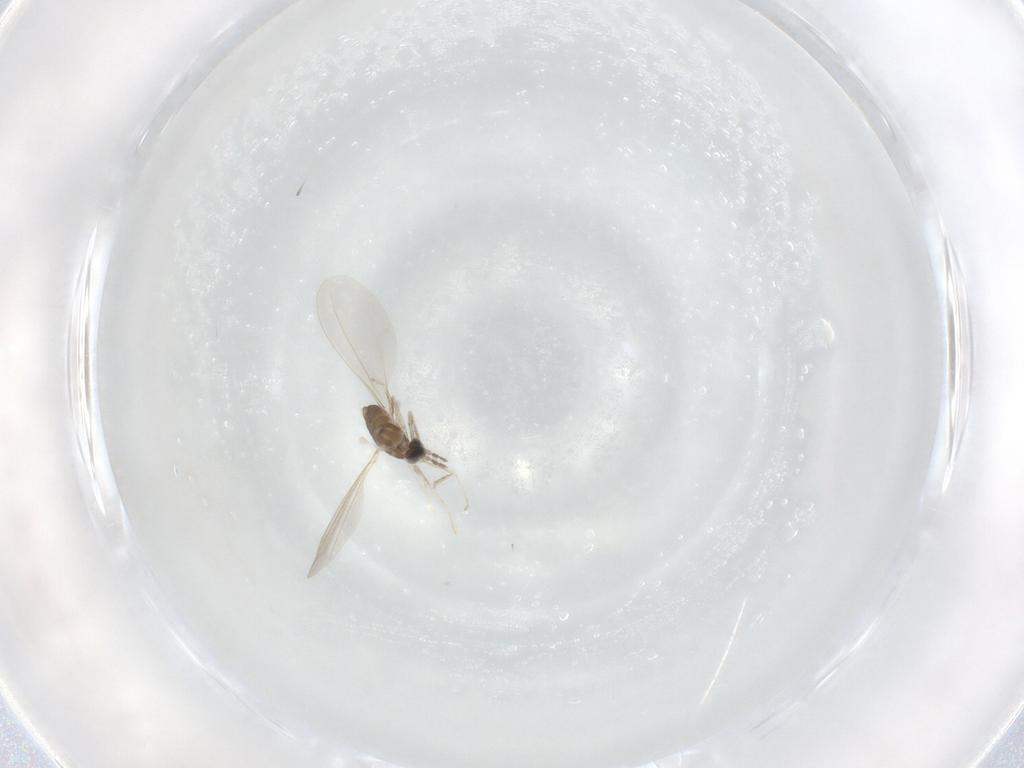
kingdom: Animalia
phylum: Arthropoda
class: Insecta
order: Diptera
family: Cecidomyiidae
